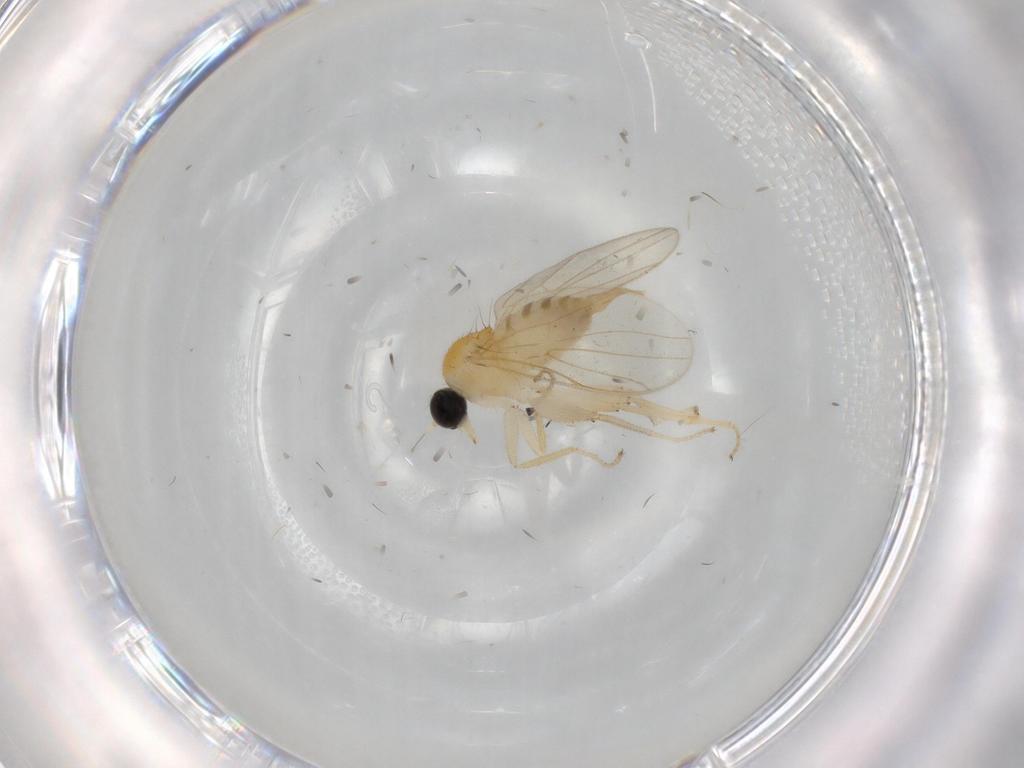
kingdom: Animalia
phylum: Arthropoda
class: Insecta
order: Diptera
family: Hybotidae
